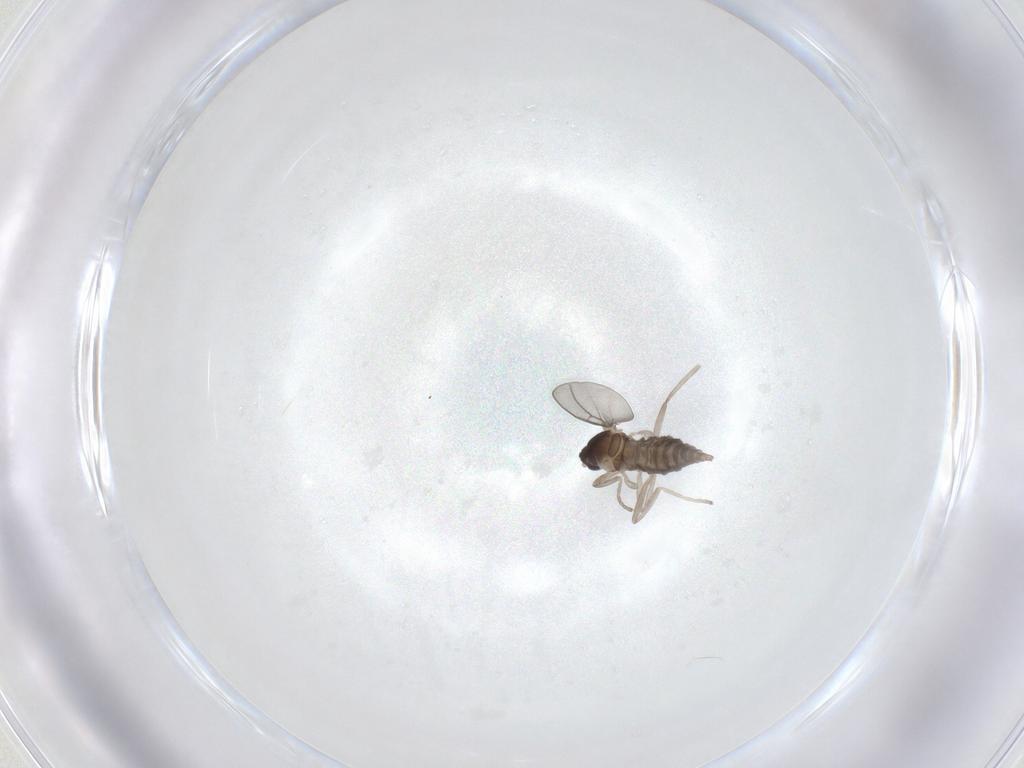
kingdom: Animalia
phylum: Arthropoda
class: Insecta
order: Diptera
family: Cecidomyiidae
